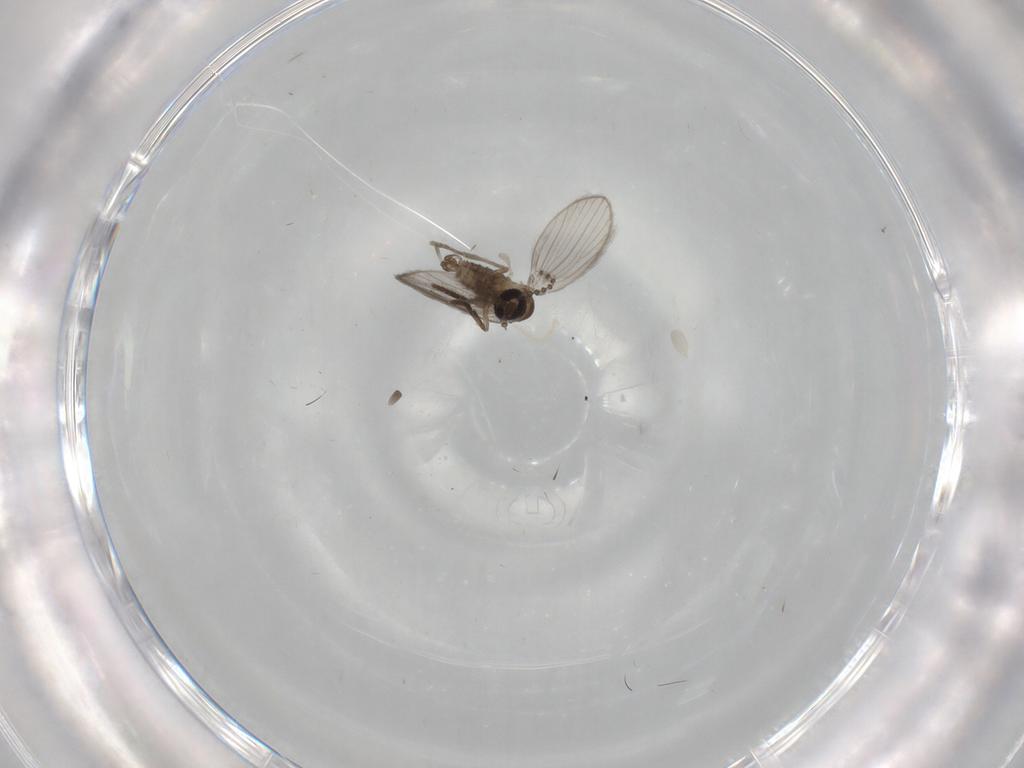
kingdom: Animalia
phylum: Arthropoda
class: Insecta
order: Diptera
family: Psychodidae
